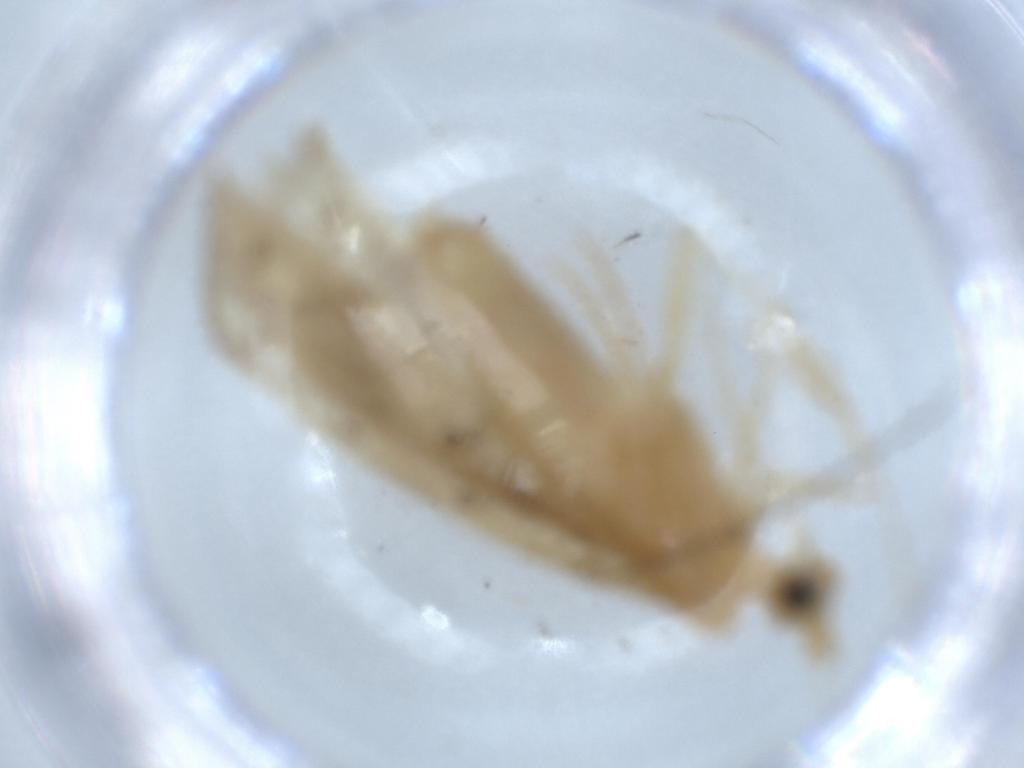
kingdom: Animalia
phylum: Arthropoda
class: Insecta
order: Trichoptera
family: Leptoceridae
